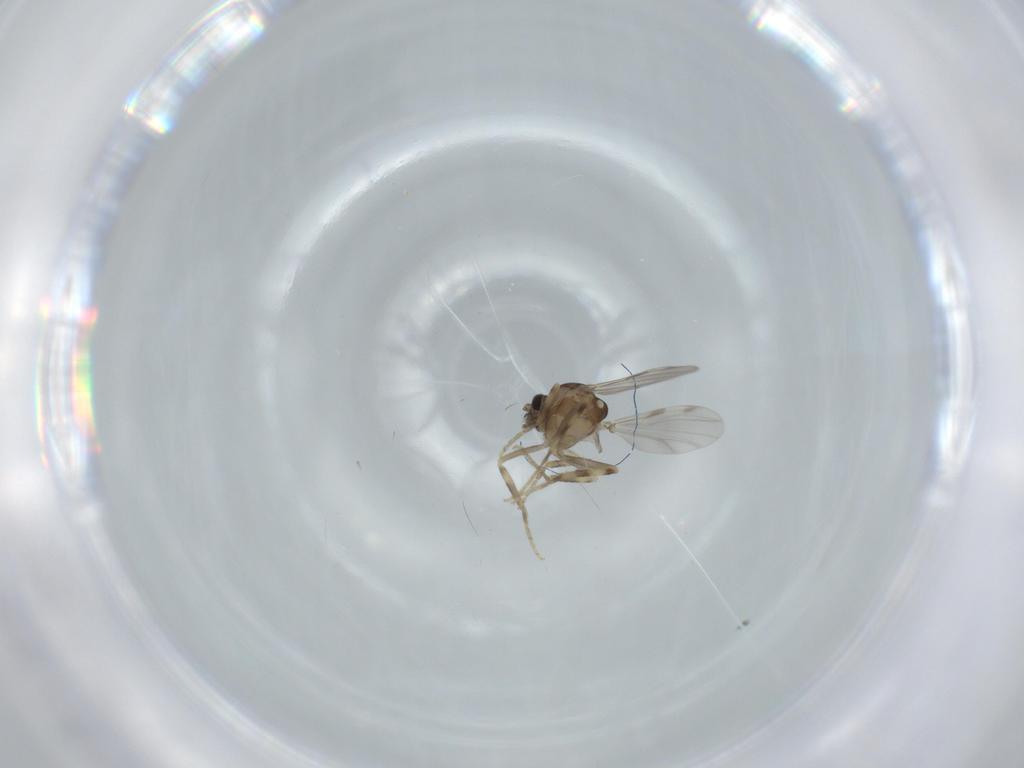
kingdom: Animalia
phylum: Arthropoda
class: Insecta
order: Diptera
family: Ceratopogonidae
